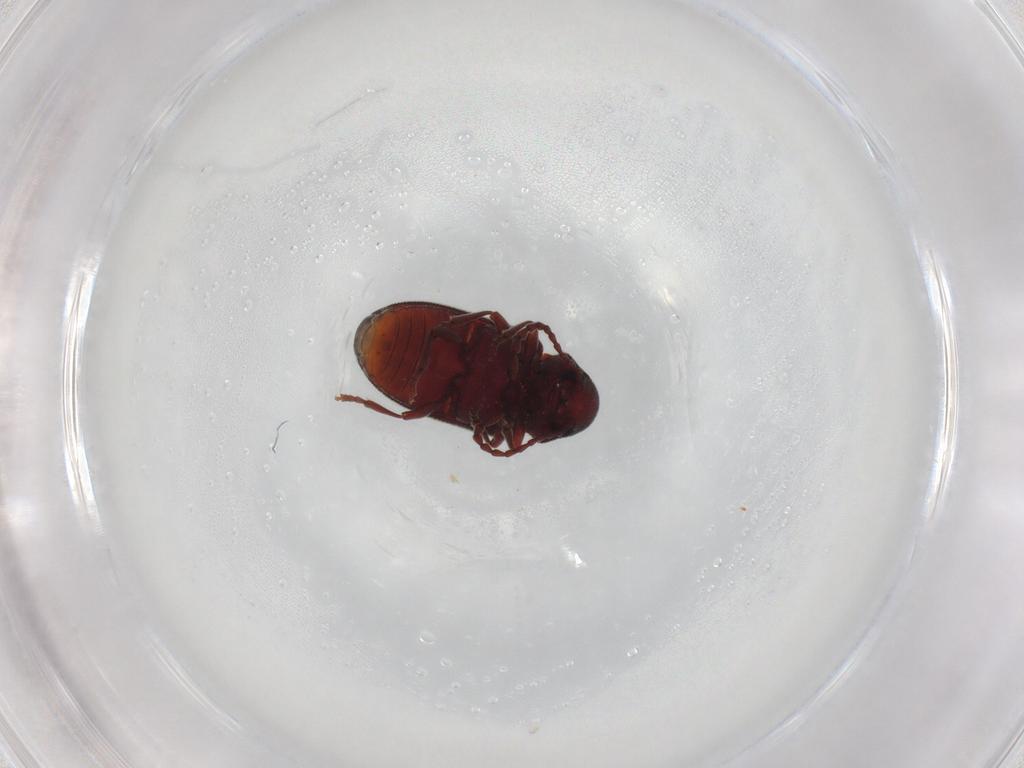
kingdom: Animalia
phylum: Arthropoda
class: Insecta
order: Coleoptera
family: Ptinidae
